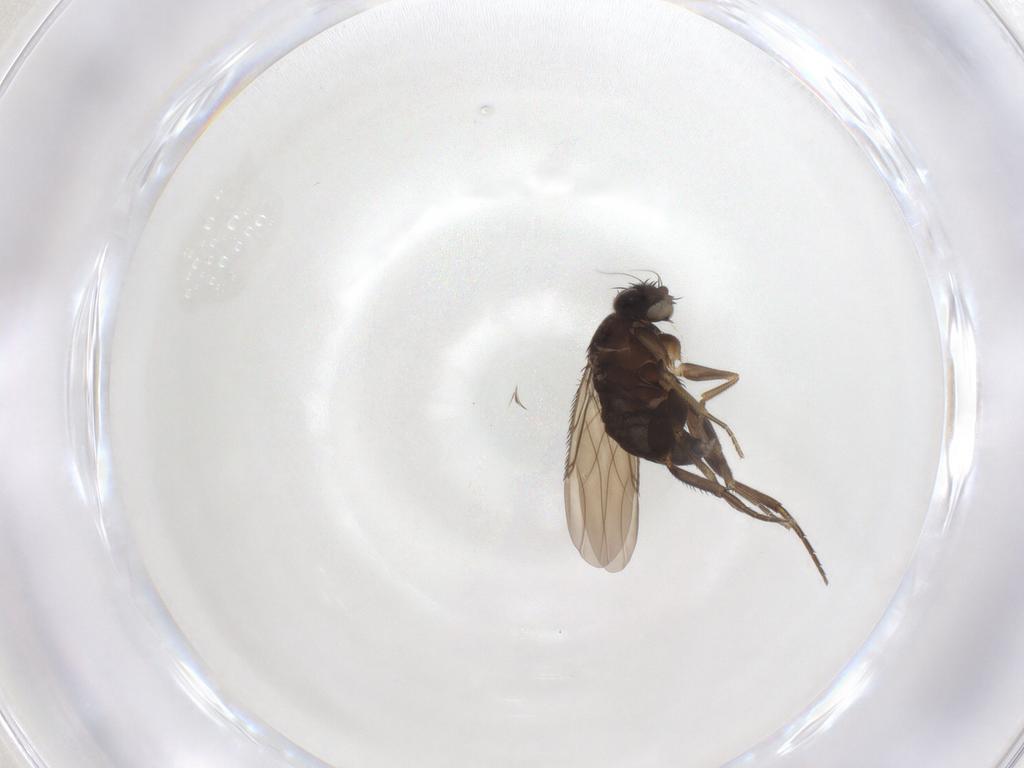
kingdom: Animalia
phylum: Arthropoda
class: Insecta
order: Diptera
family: Phoridae
